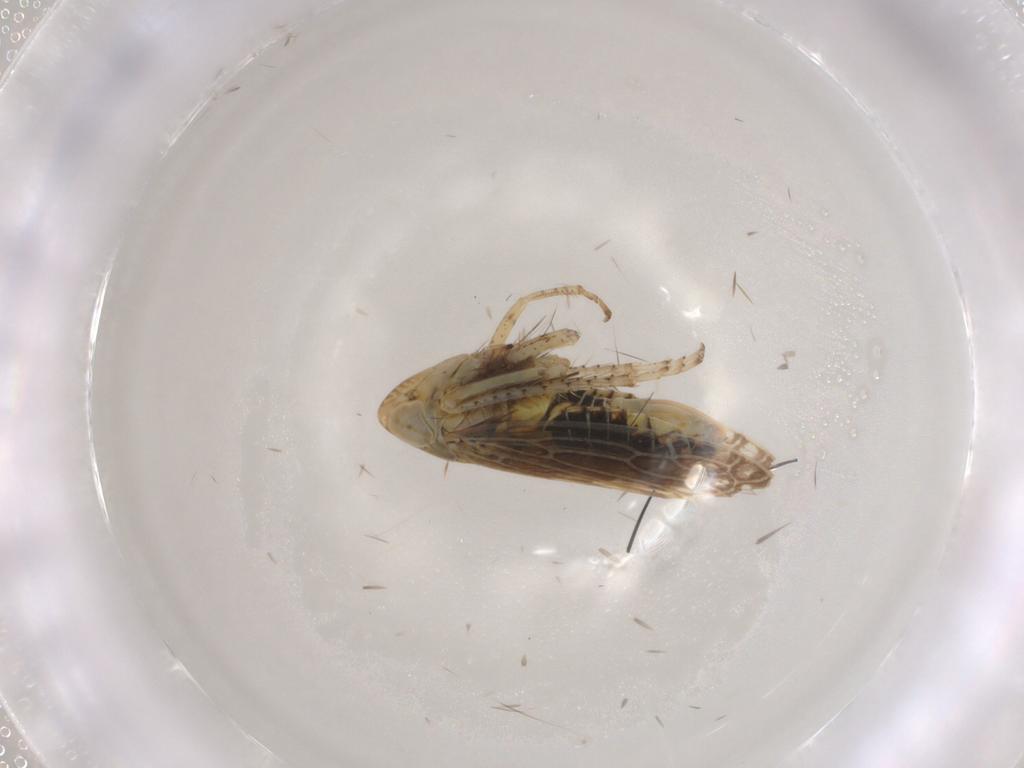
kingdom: Animalia
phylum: Arthropoda
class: Insecta
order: Hemiptera
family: Cicadellidae
